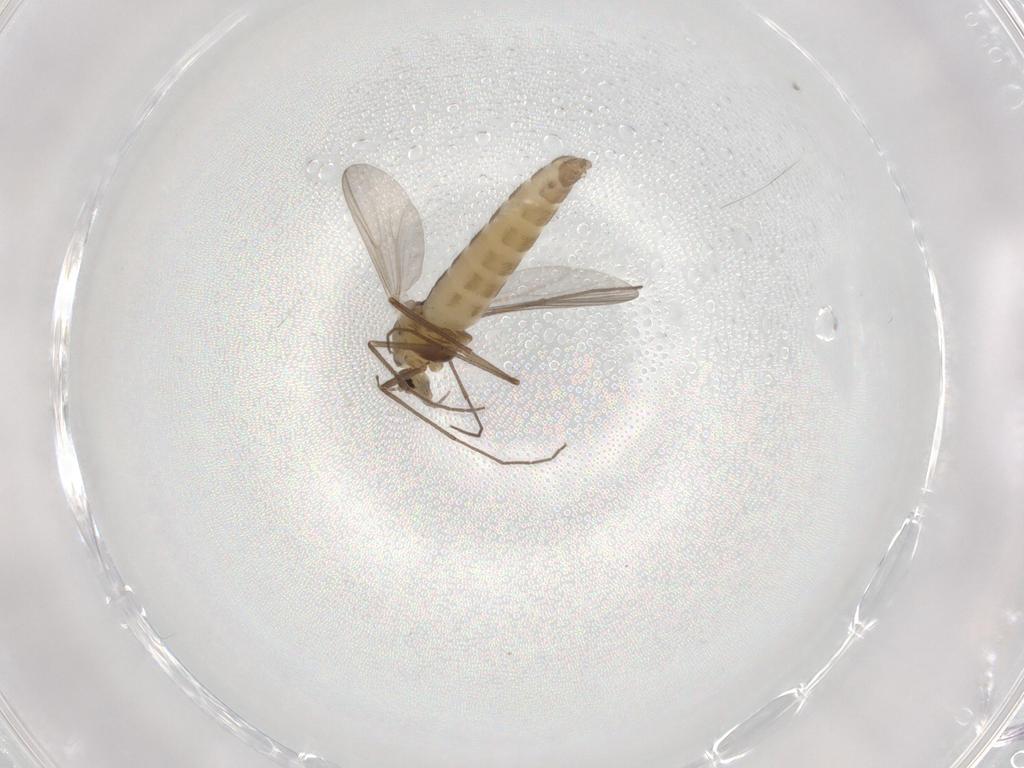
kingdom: Animalia
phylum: Arthropoda
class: Insecta
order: Diptera
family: Chironomidae
